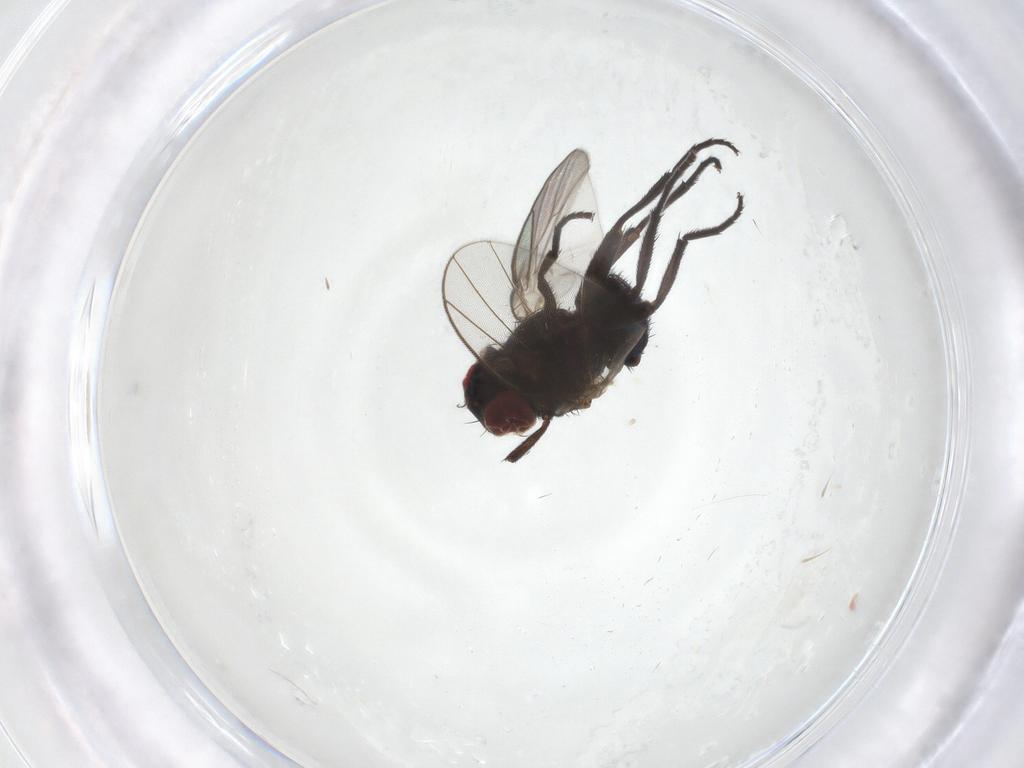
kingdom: Animalia
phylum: Arthropoda
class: Insecta
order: Diptera
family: Agromyzidae
